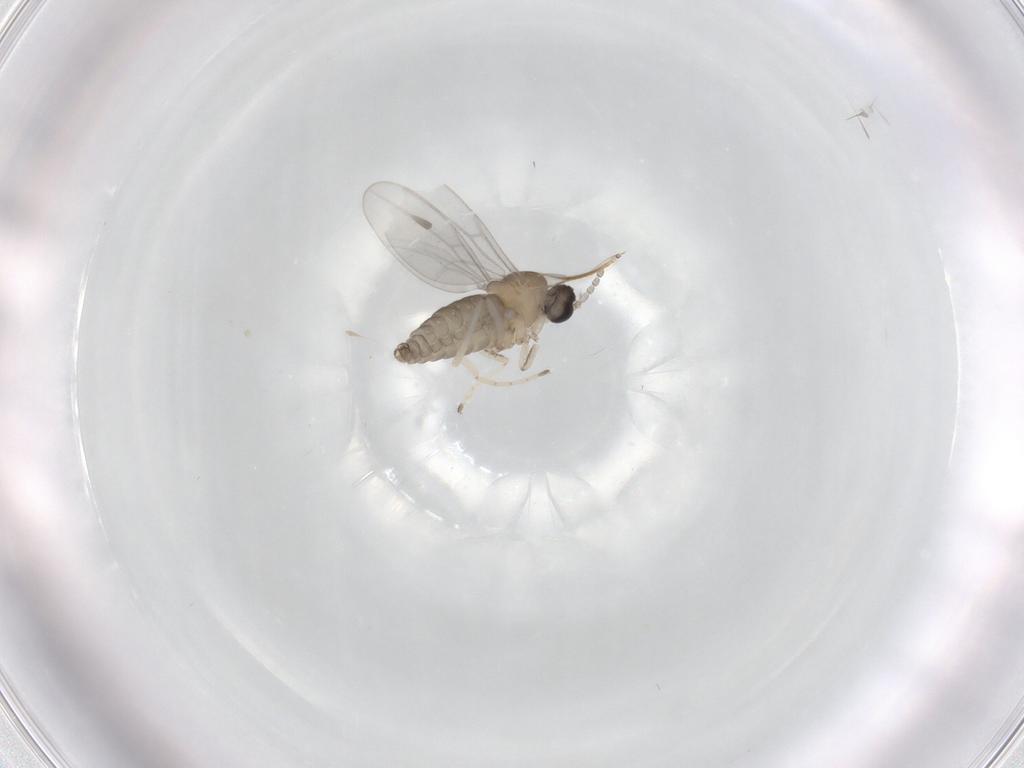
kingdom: Animalia
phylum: Arthropoda
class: Insecta
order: Diptera
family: Cecidomyiidae
